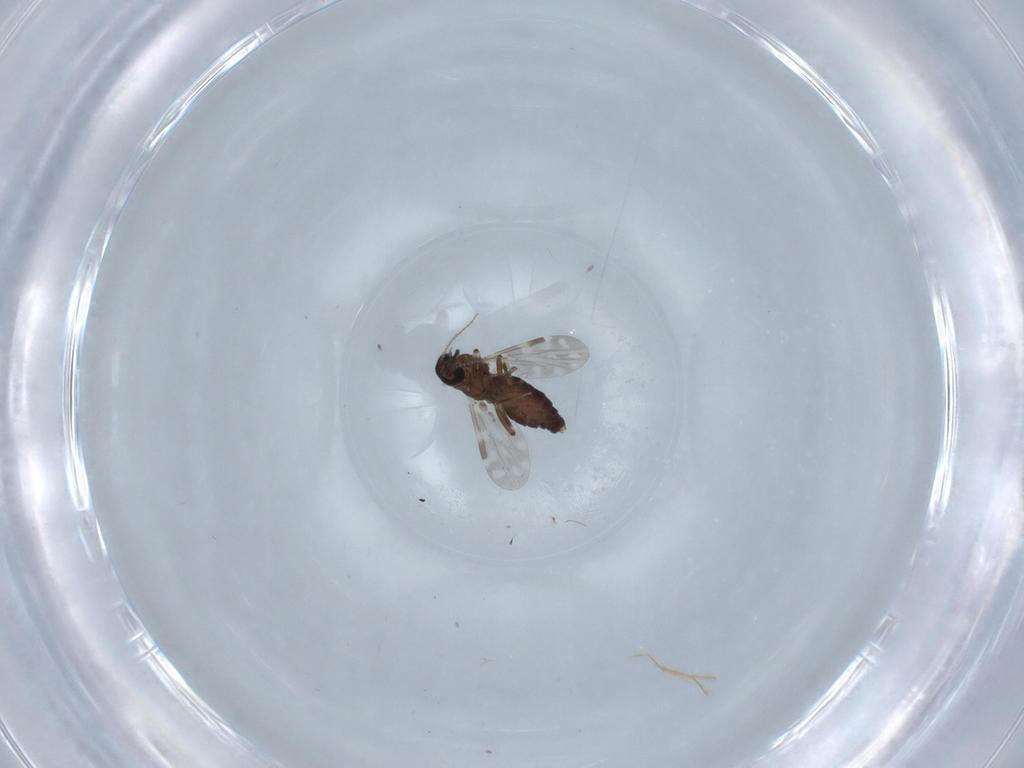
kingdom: Animalia
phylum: Arthropoda
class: Insecta
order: Diptera
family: Ceratopogonidae
